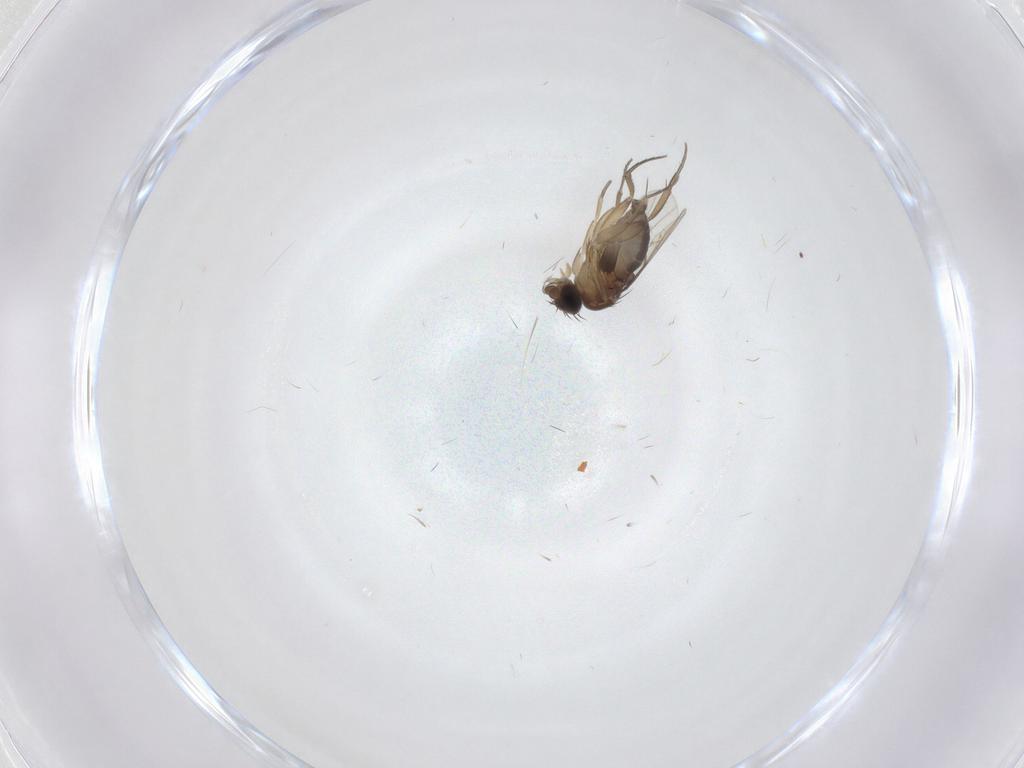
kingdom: Animalia
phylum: Arthropoda
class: Insecta
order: Diptera
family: Phoridae
